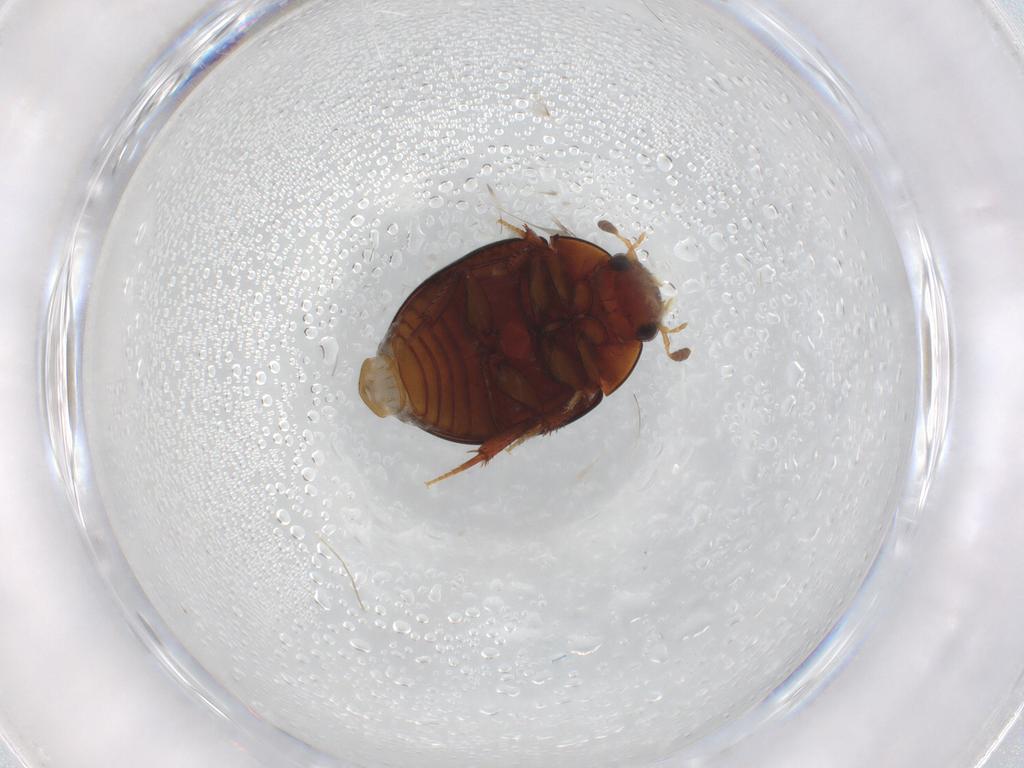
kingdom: Animalia
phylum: Arthropoda
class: Insecta
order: Coleoptera
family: Hydrophilidae
